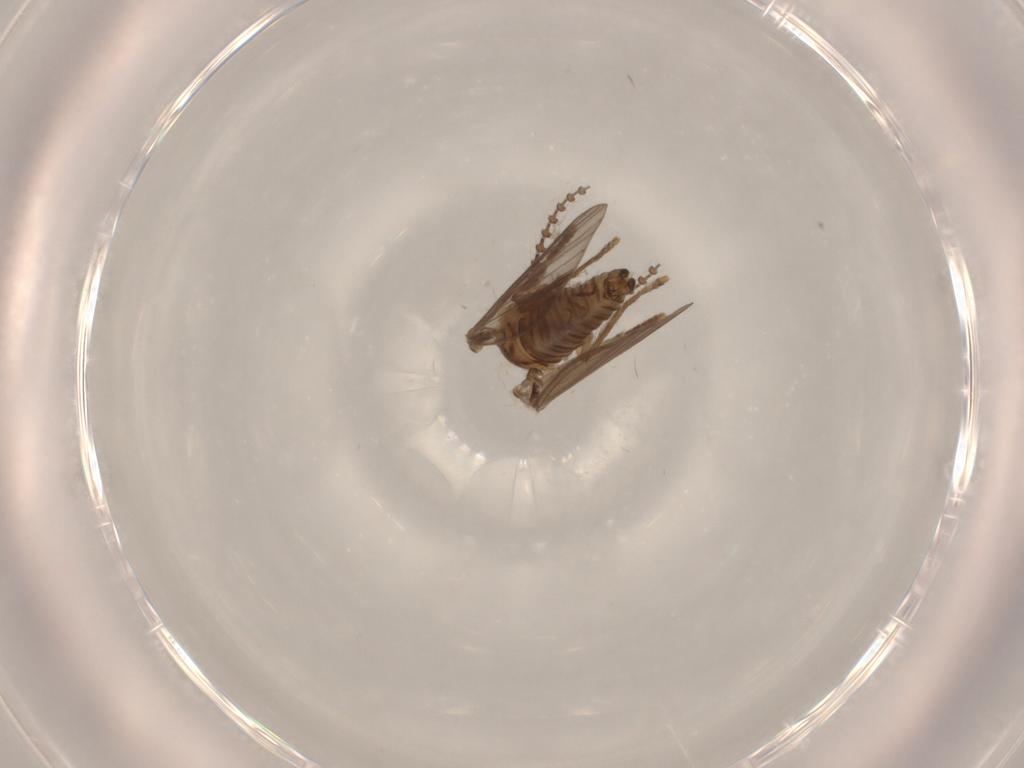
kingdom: Animalia
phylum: Arthropoda
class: Insecta
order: Diptera
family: Psychodidae
